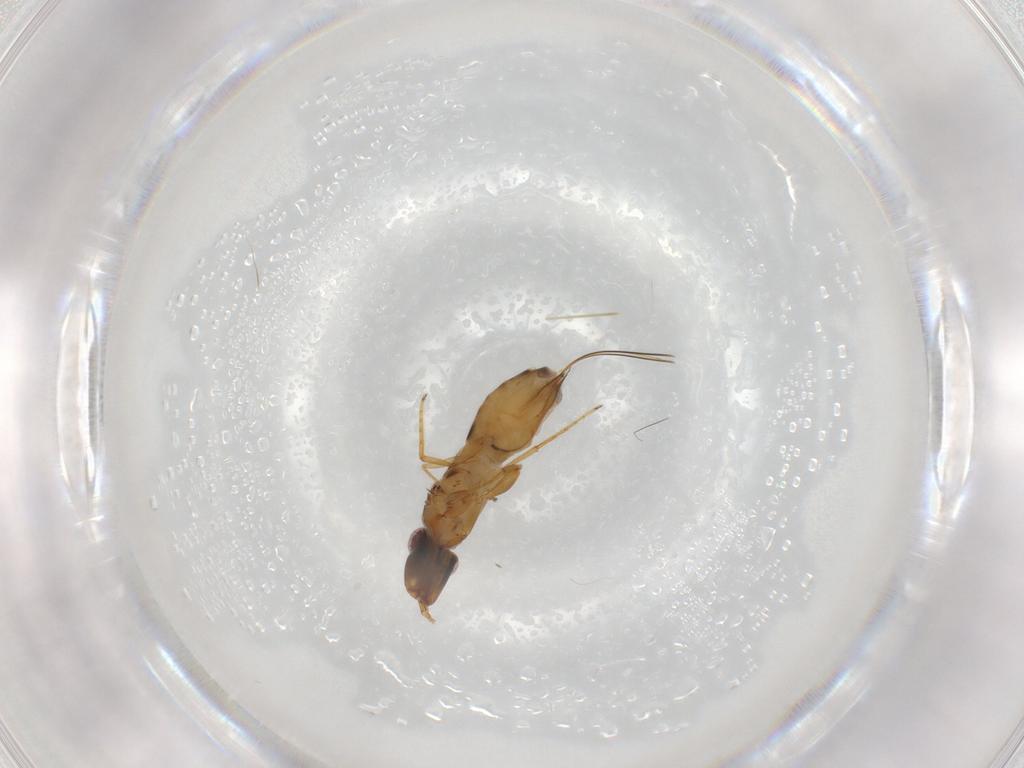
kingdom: Animalia
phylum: Arthropoda
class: Insecta
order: Hymenoptera
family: Agaonidae
